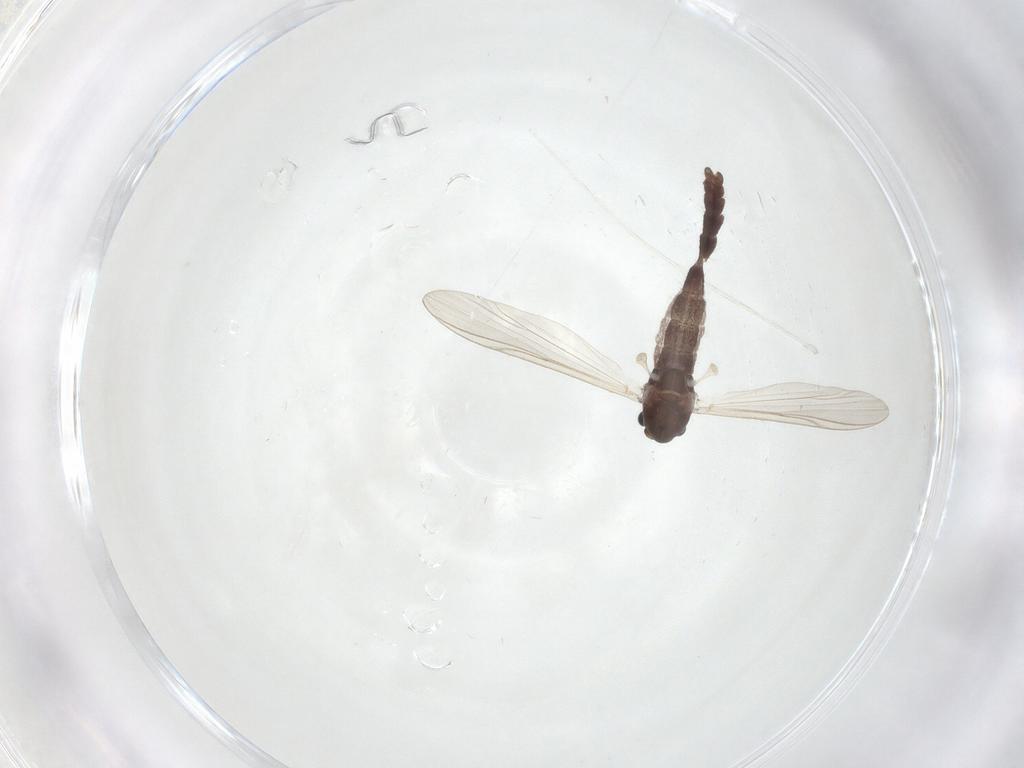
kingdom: Animalia
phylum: Arthropoda
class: Insecta
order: Diptera
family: Chironomidae
